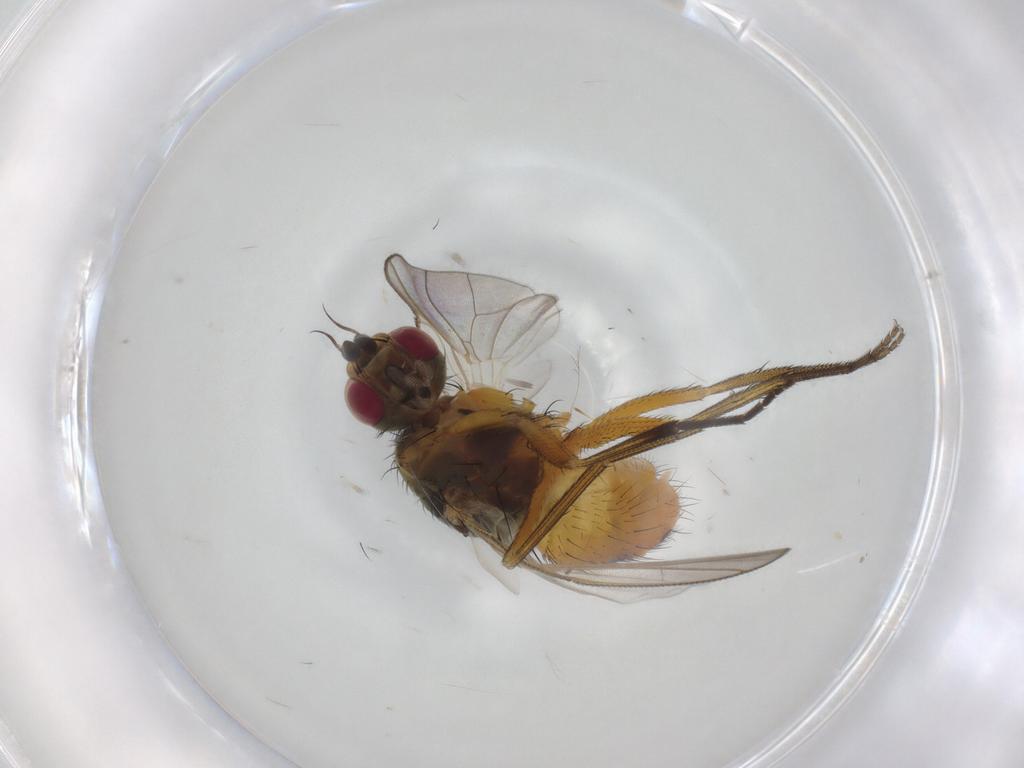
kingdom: Animalia
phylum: Arthropoda
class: Insecta
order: Diptera
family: Muscidae
